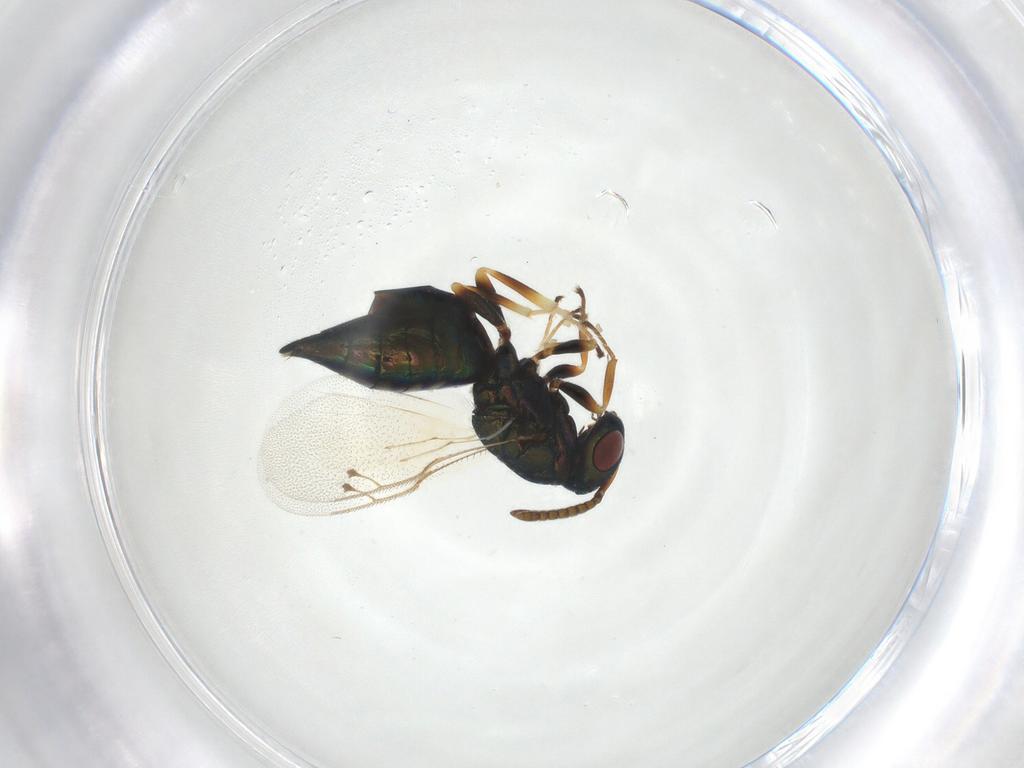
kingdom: Animalia
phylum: Arthropoda
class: Insecta
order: Hymenoptera
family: Pteromalidae
